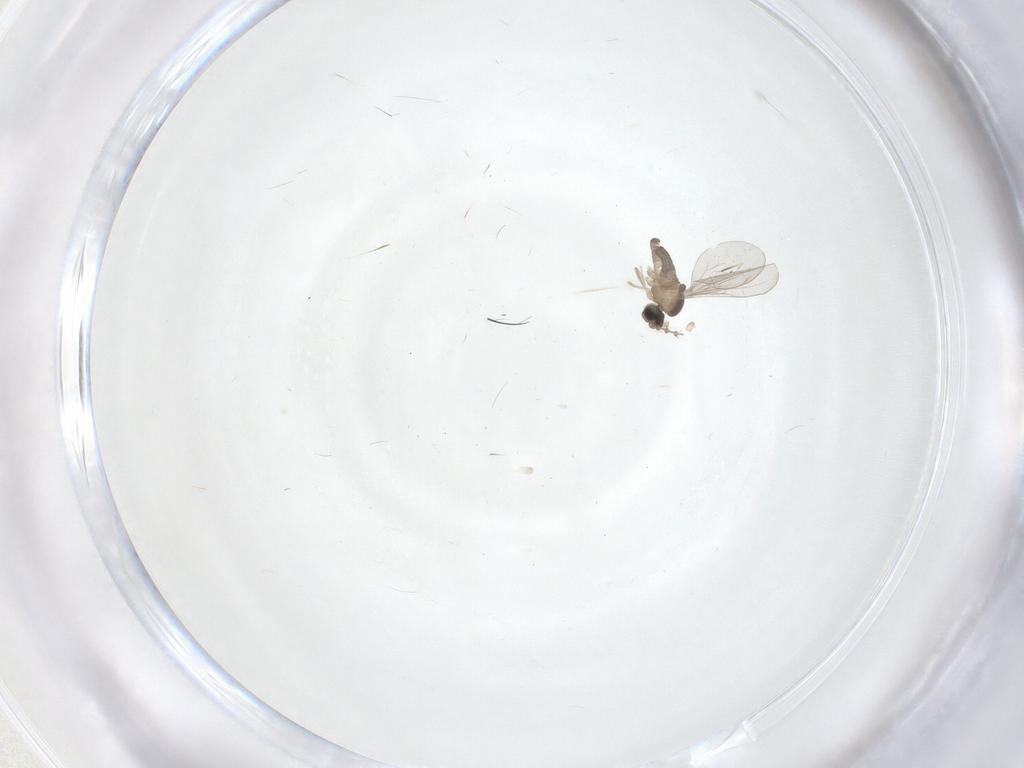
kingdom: Animalia
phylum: Arthropoda
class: Insecta
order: Diptera
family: Cecidomyiidae
